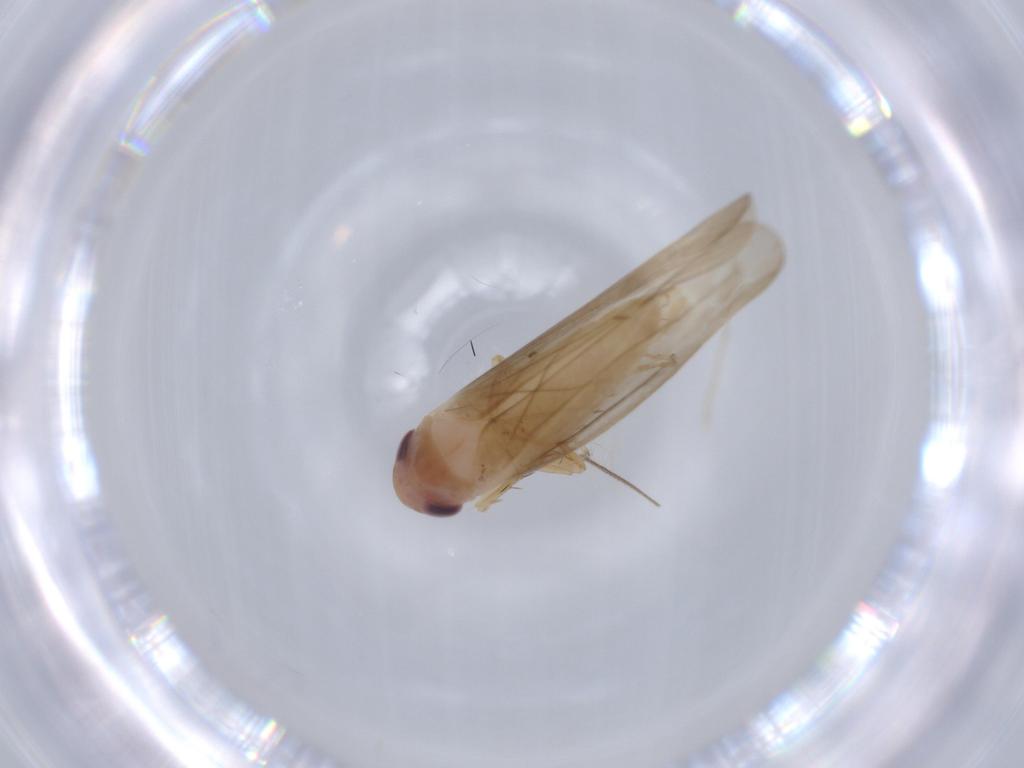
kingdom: Animalia
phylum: Arthropoda
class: Insecta
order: Hemiptera
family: Cicadellidae
